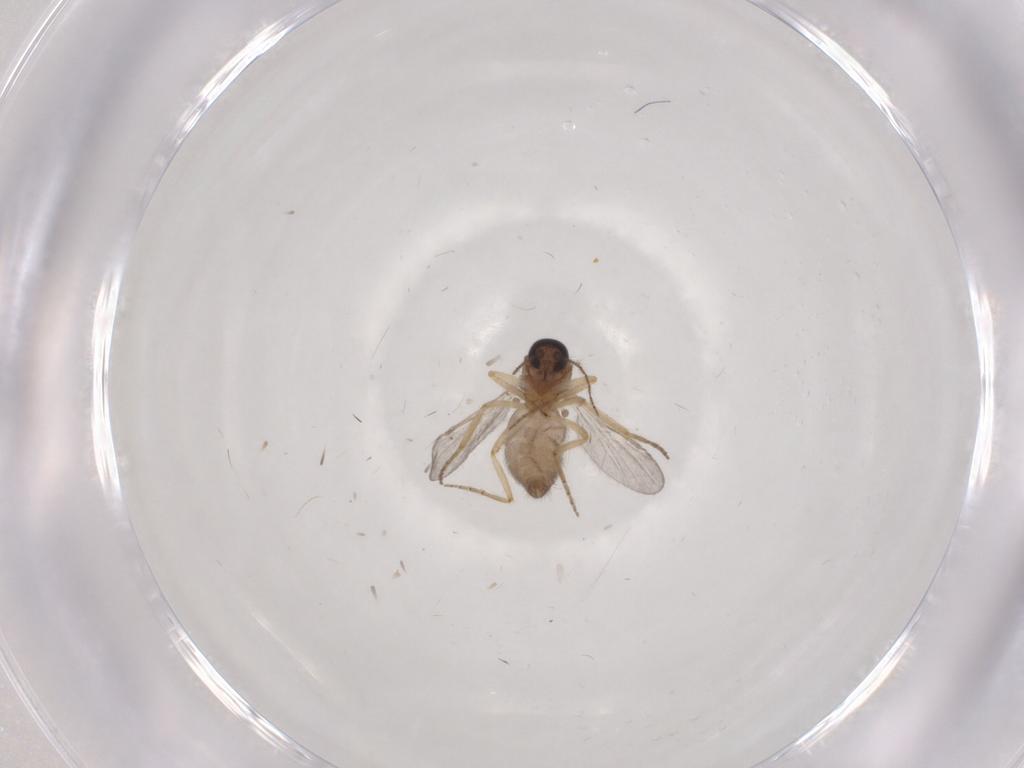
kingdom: Animalia
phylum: Arthropoda
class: Insecta
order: Diptera
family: Ceratopogonidae
